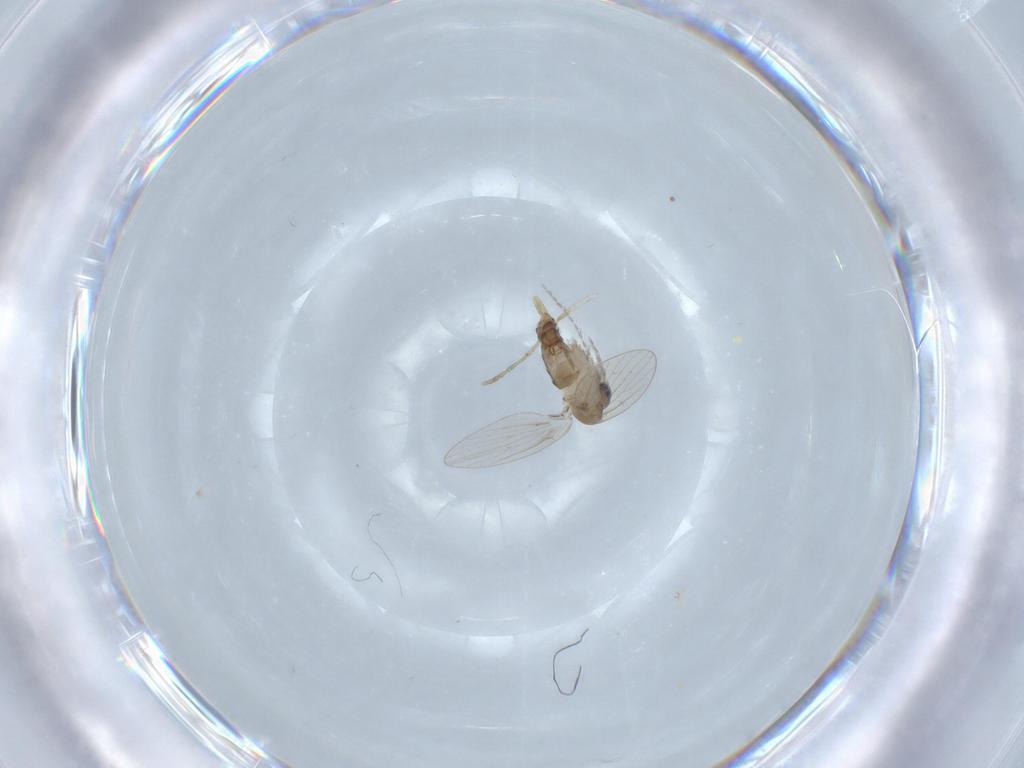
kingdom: Animalia
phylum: Arthropoda
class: Insecta
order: Diptera
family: Psychodidae
